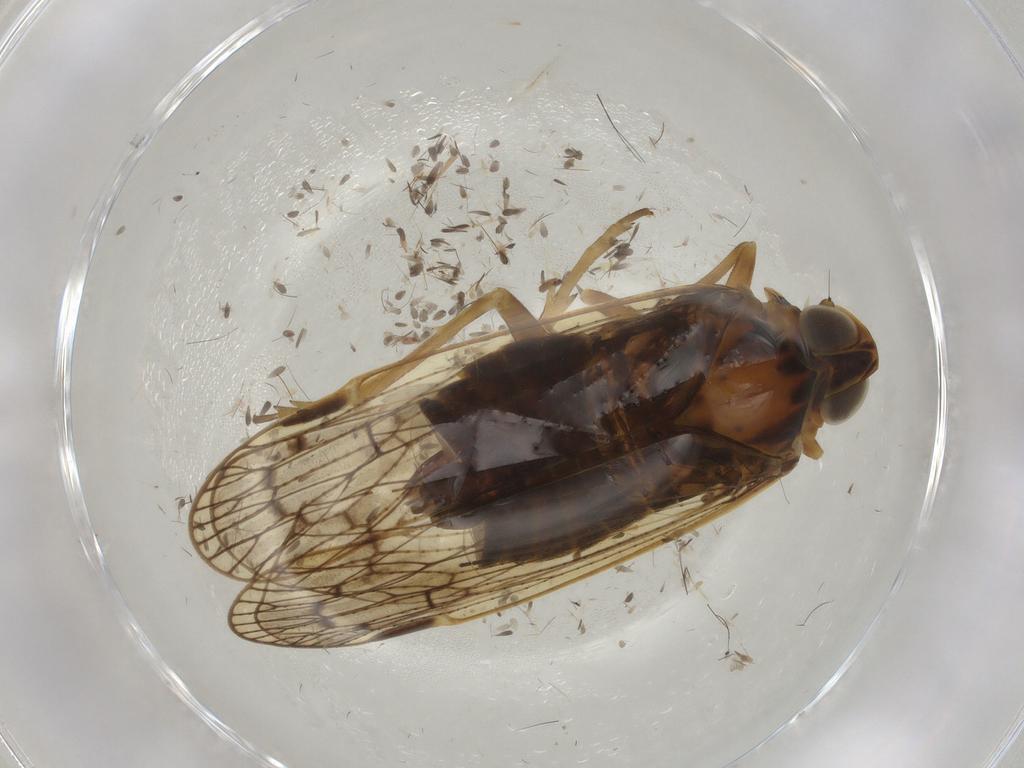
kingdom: Animalia
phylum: Arthropoda
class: Insecta
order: Hemiptera
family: Cixiidae
